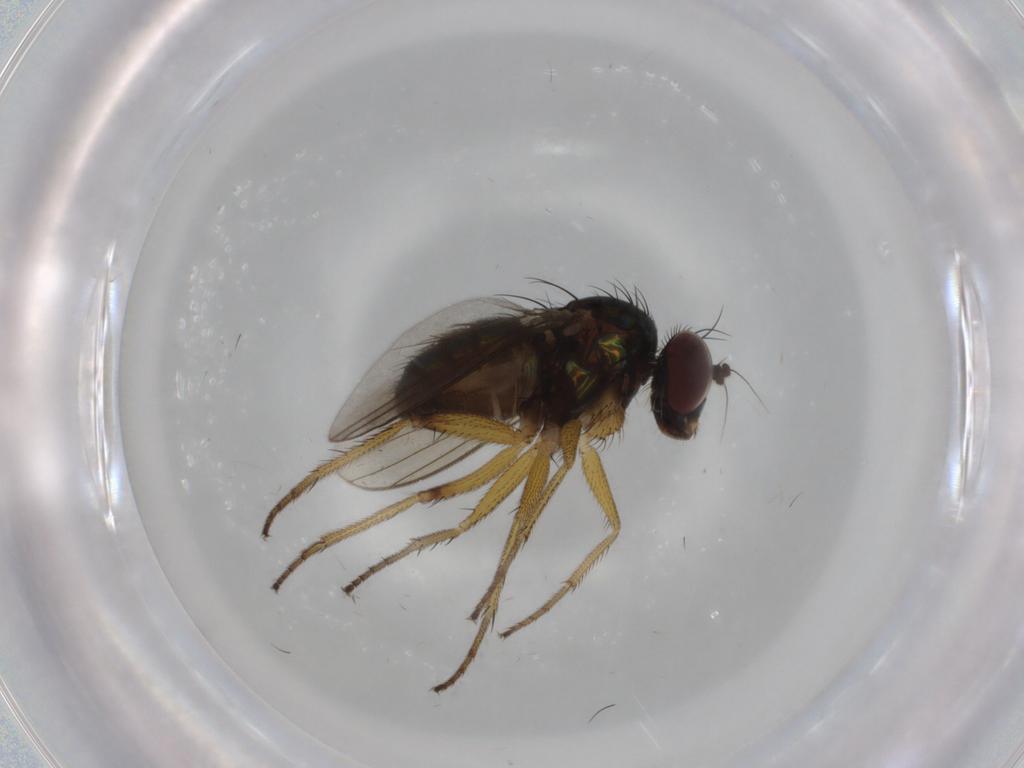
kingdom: Animalia
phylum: Arthropoda
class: Insecta
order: Diptera
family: Dolichopodidae
